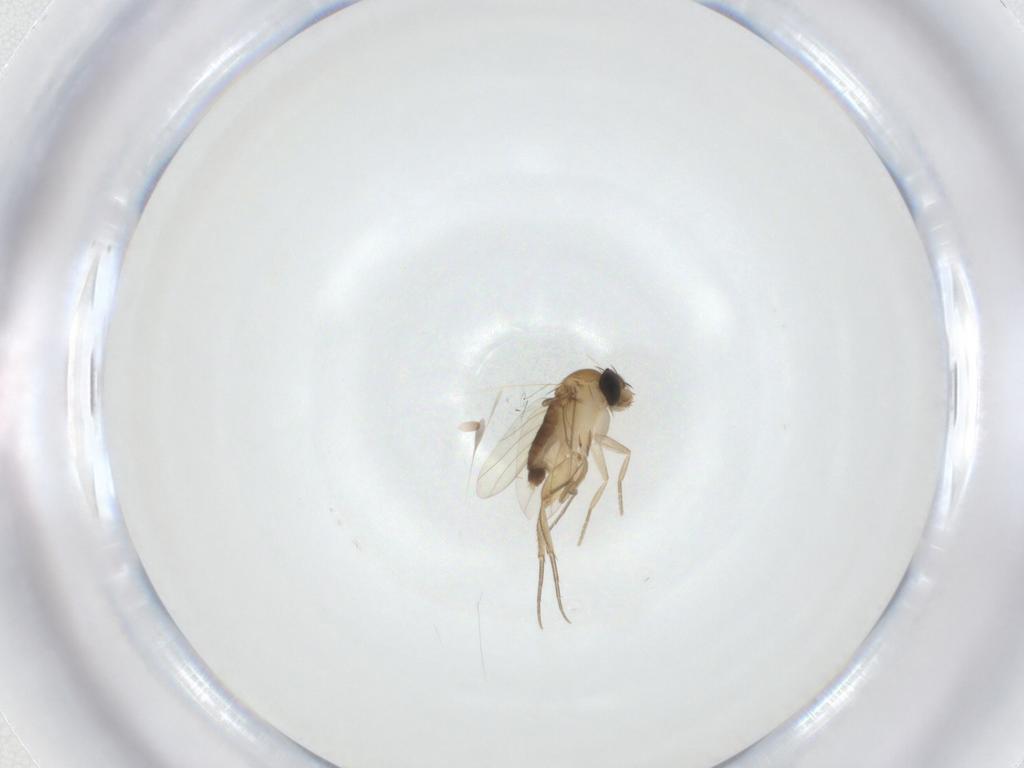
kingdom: Animalia
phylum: Arthropoda
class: Insecta
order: Diptera
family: Phoridae
